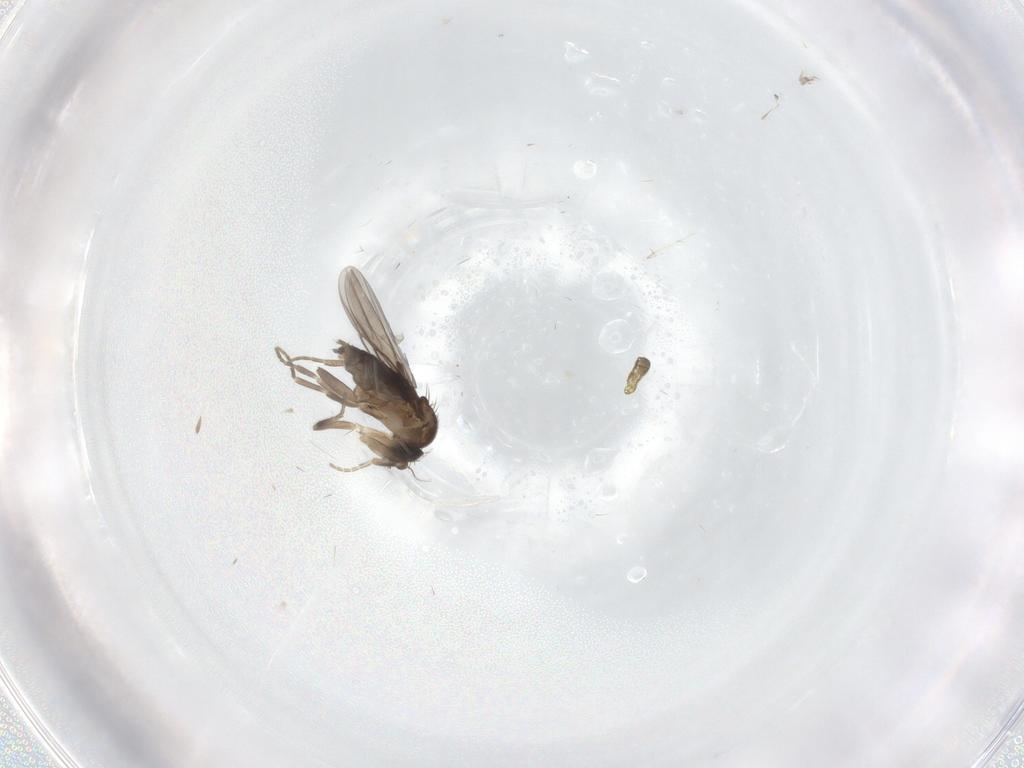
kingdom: Animalia
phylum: Arthropoda
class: Insecta
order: Diptera
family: Phoridae
